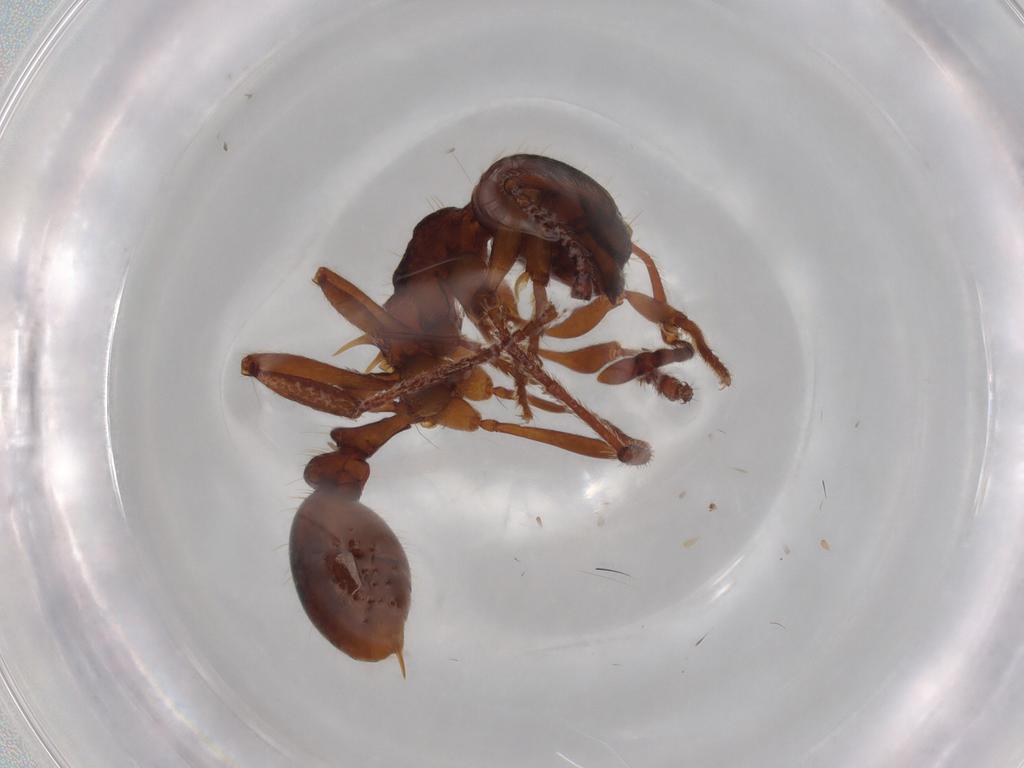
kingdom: Animalia
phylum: Arthropoda
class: Insecta
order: Hymenoptera
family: Formicidae
